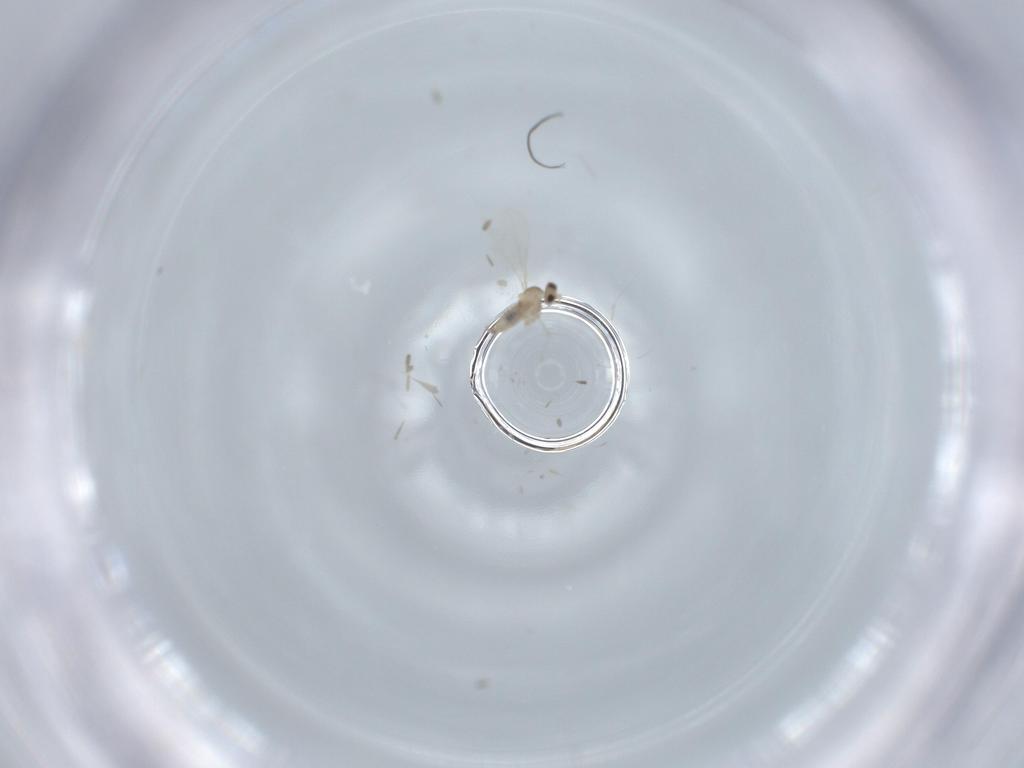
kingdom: Animalia
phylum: Arthropoda
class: Insecta
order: Diptera
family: Cecidomyiidae
